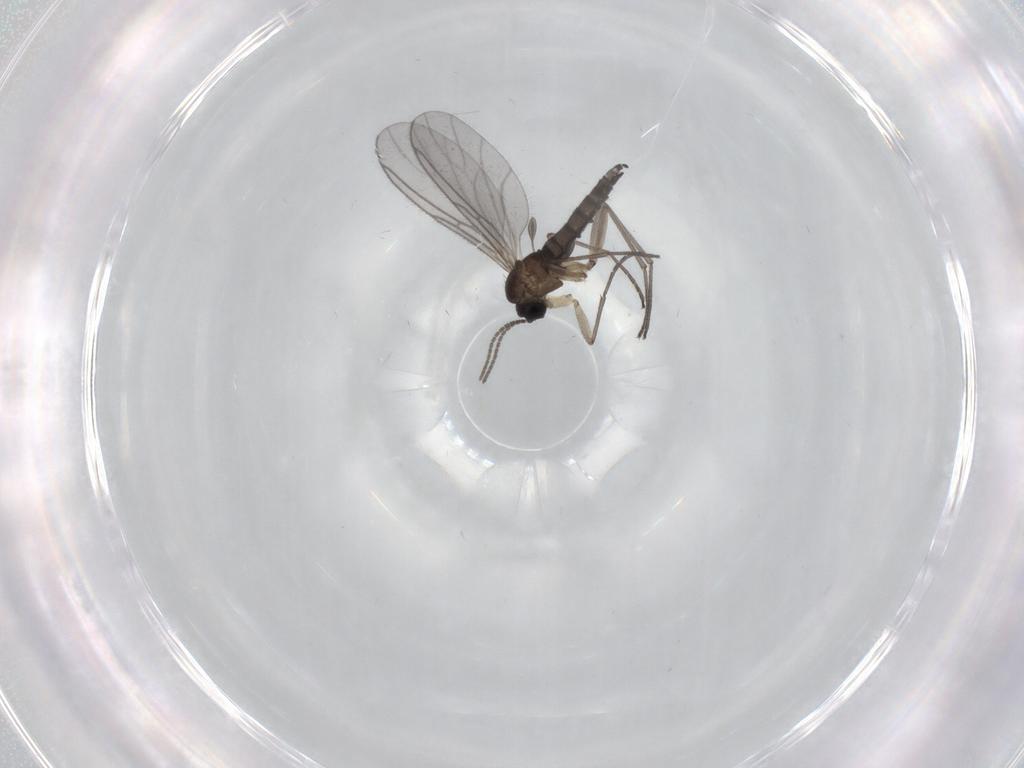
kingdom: Animalia
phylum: Arthropoda
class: Insecta
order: Diptera
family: Sciaridae
